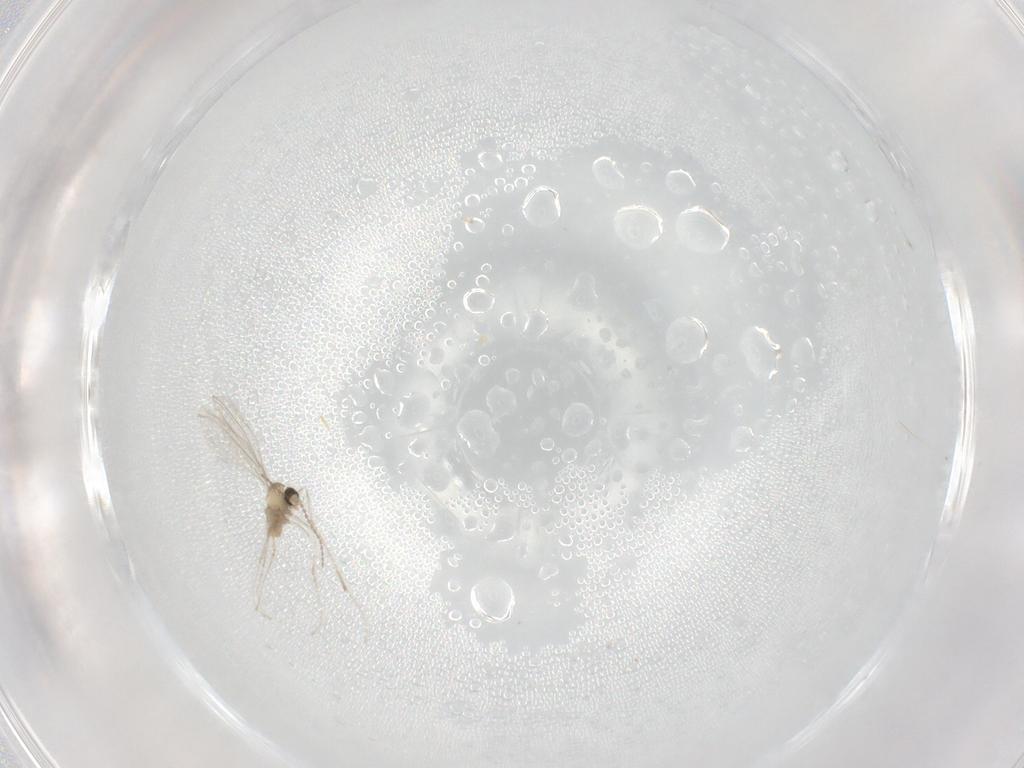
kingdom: Animalia
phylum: Arthropoda
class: Insecta
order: Diptera
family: Cecidomyiidae
